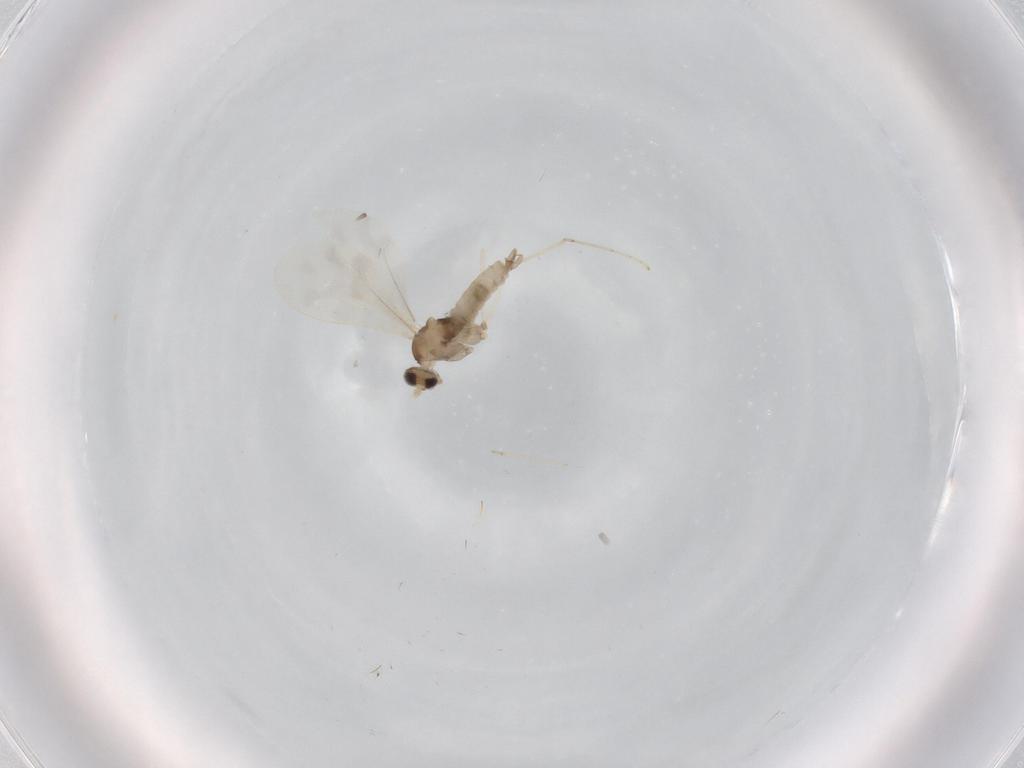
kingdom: Animalia
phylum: Arthropoda
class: Insecta
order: Diptera
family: Cecidomyiidae
